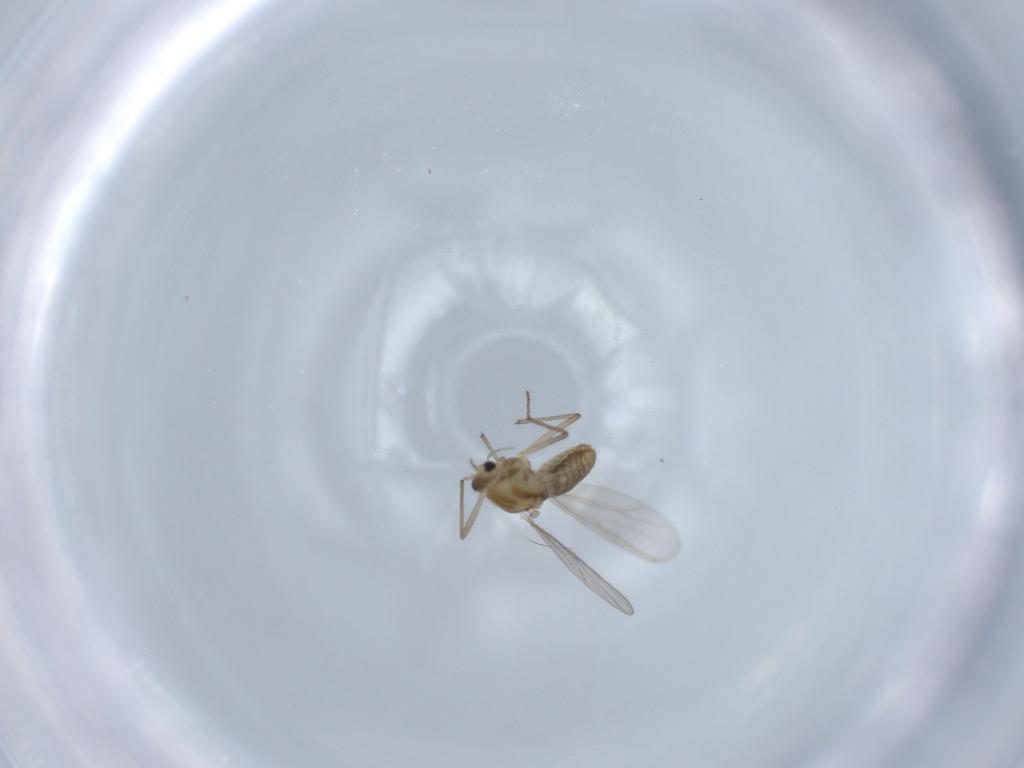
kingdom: Animalia
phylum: Arthropoda
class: Insecta
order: Diptera
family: Chironomidae
